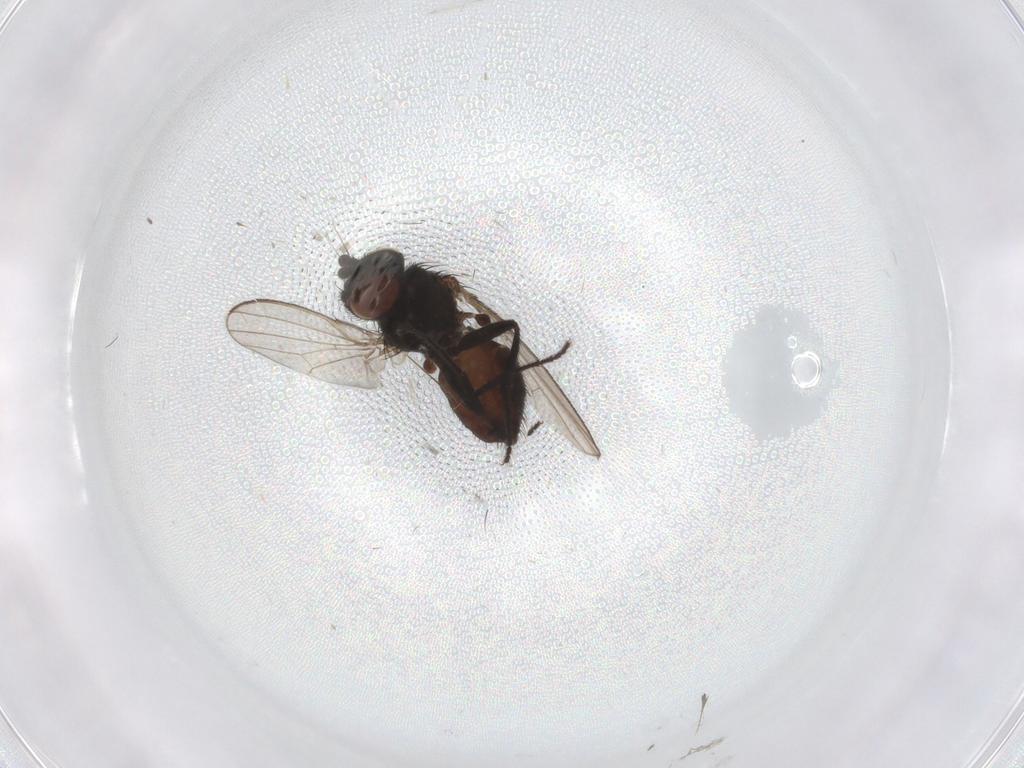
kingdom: Animalia
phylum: Arthropoda
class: Insecta
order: Diptera
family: Milichiidae
